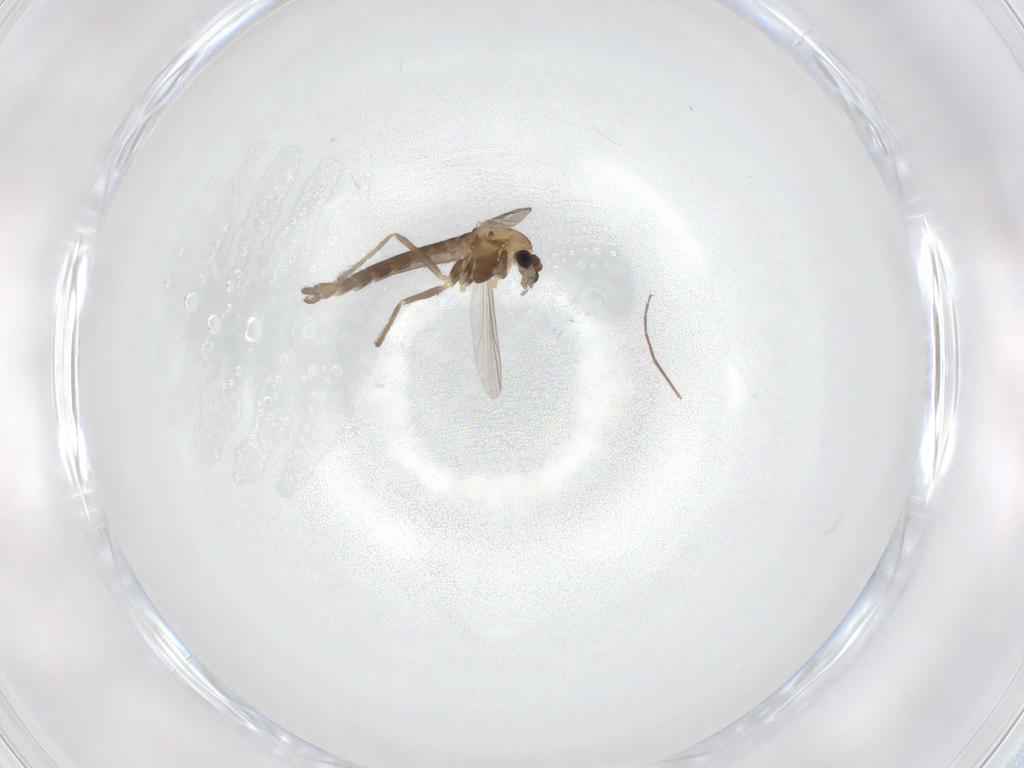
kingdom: Animalia
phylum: Arthropoda
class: Insecta
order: Diptera
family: Chironomidae
